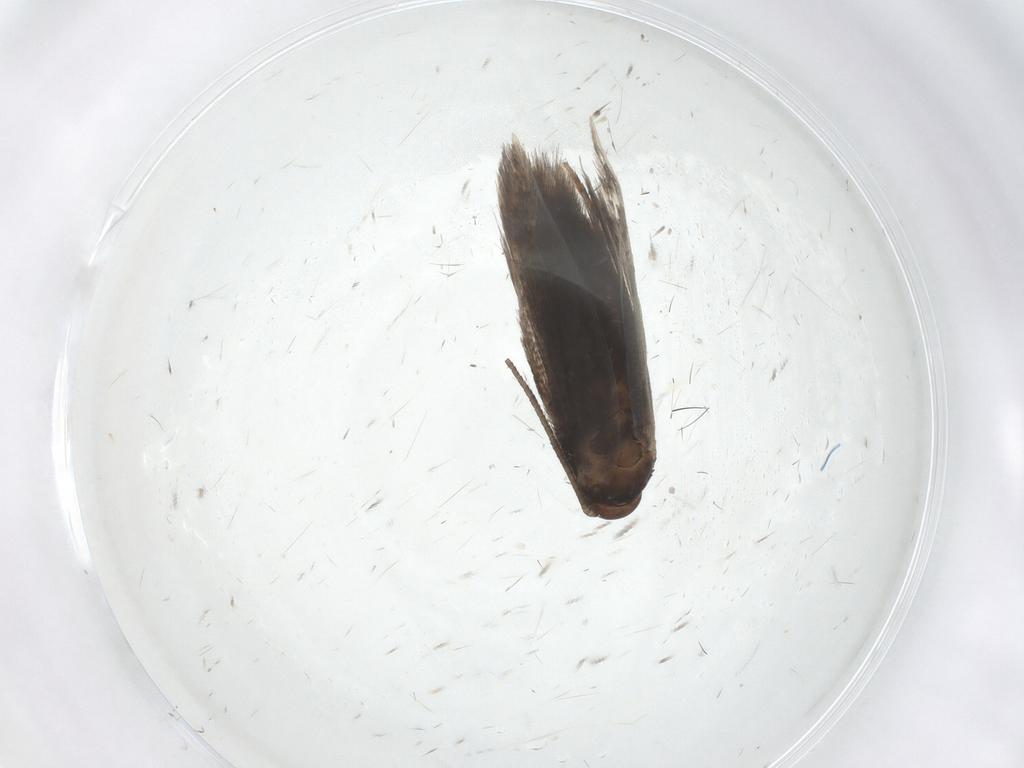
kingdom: Animalia
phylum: Arthropoda
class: Insecta
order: Lepidoptera
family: Elachistidae
